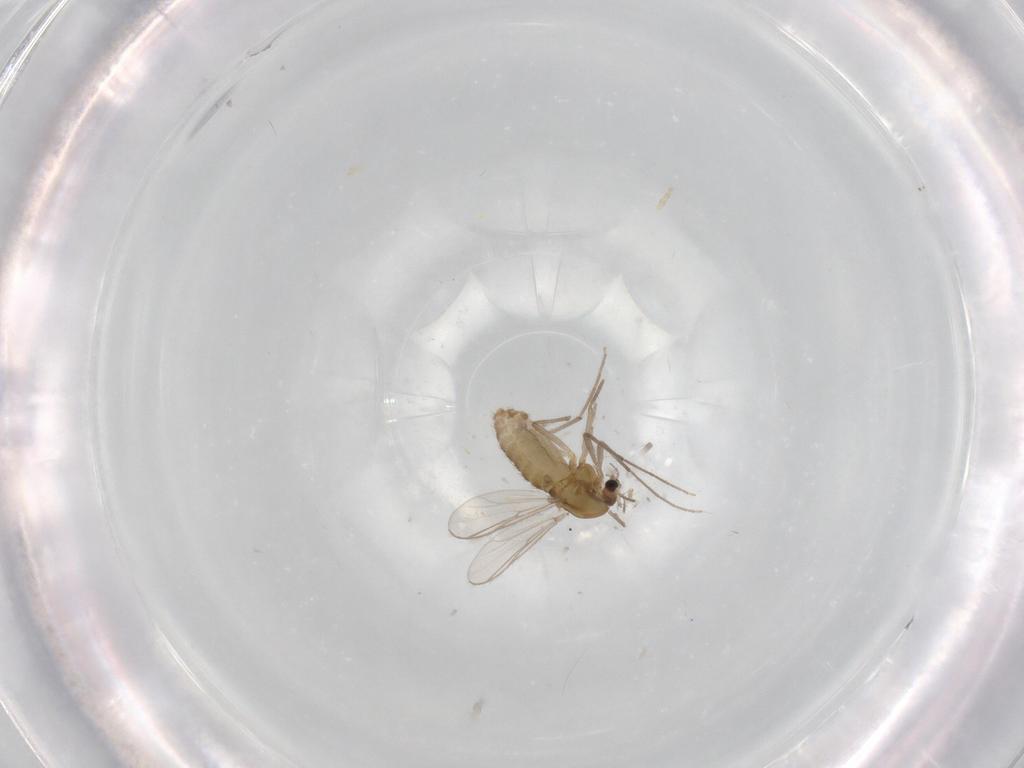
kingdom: Animalia
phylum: Arthropoda
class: Insecta
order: Diptera
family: Chironomidae
